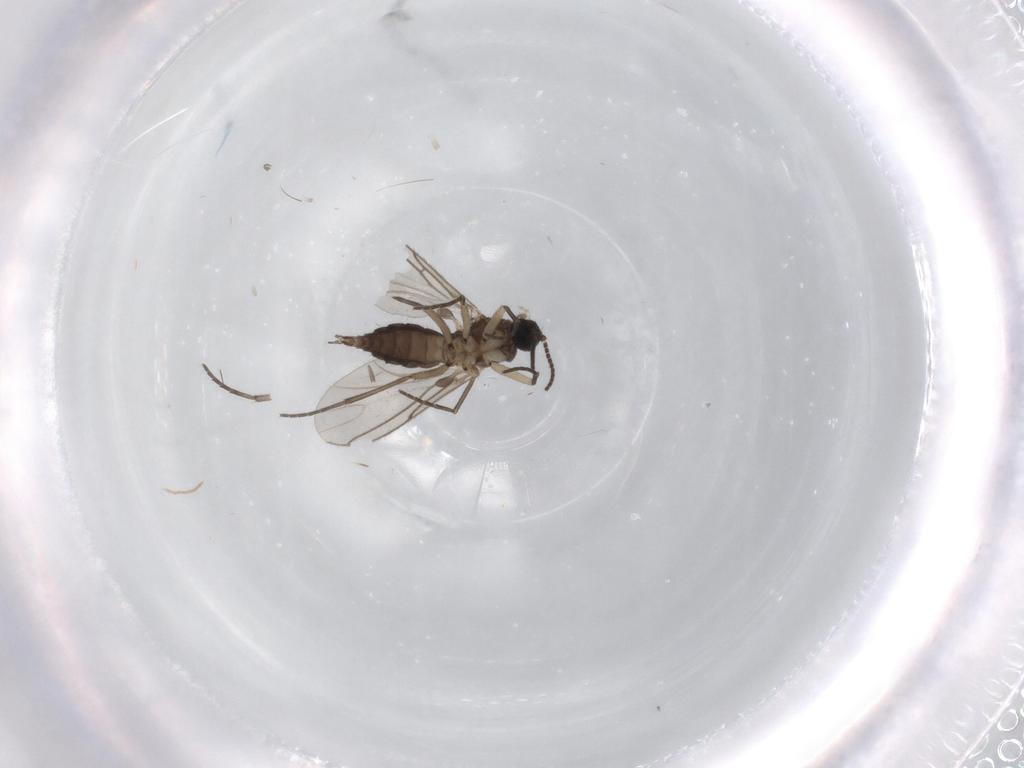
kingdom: Animalia
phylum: Arthropoda
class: Insecta
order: Diptera
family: Sciaridae
